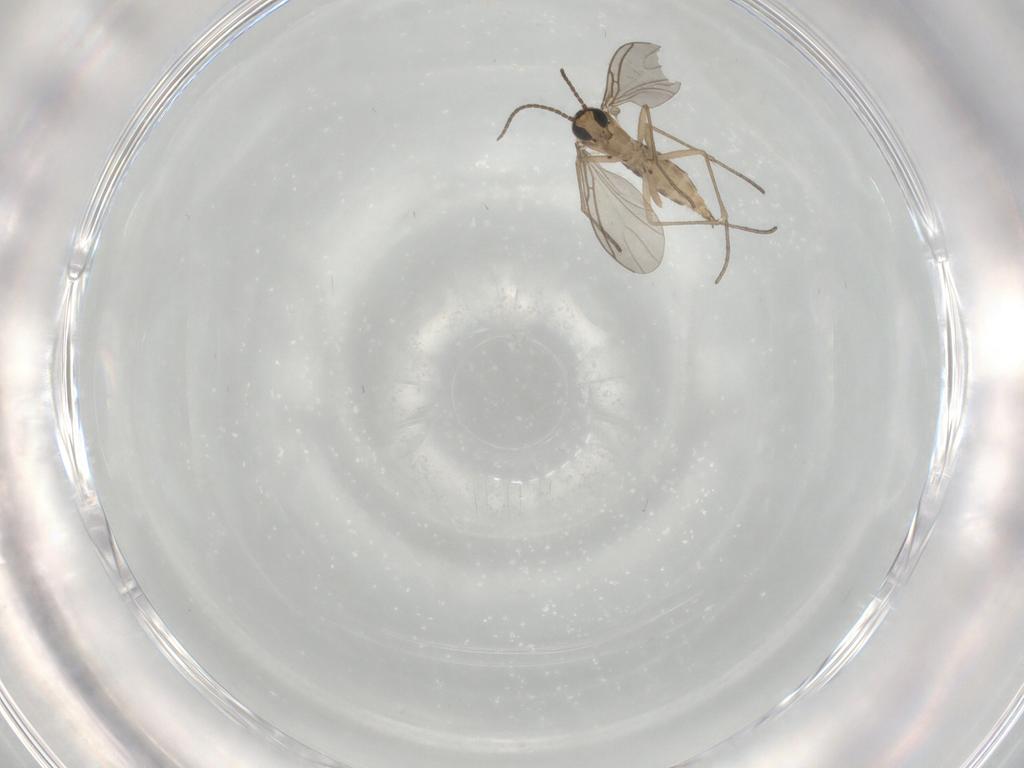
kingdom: Animalia
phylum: Arthropoda
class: Insecta
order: Diptera
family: Sciaridae
